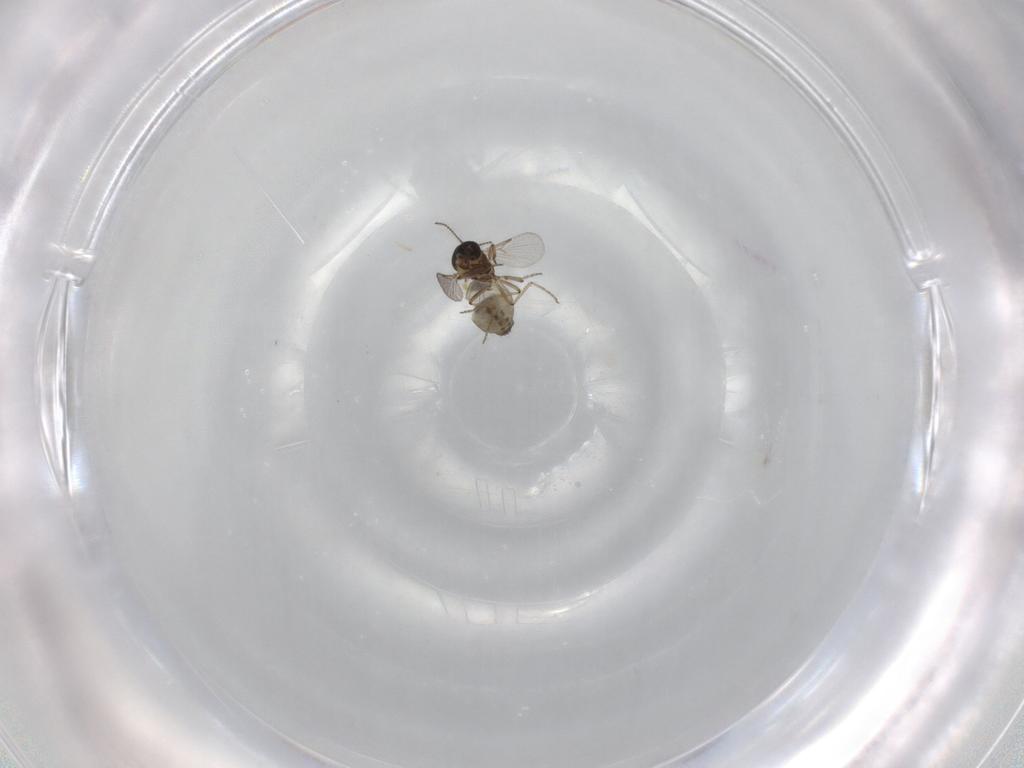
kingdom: Animalia
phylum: Arthropoda
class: Insecta
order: Diptera
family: Ceratopogonidae
